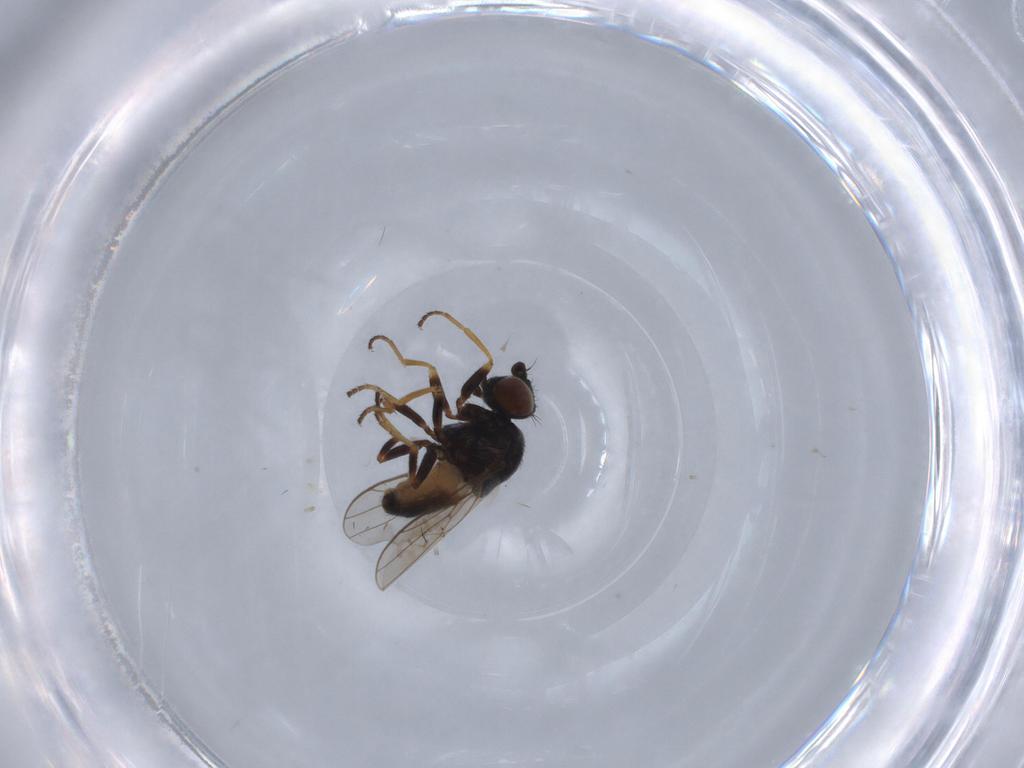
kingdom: Animalia
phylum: Arthropoda
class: Insecta
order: Diptera
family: Chloropidae
